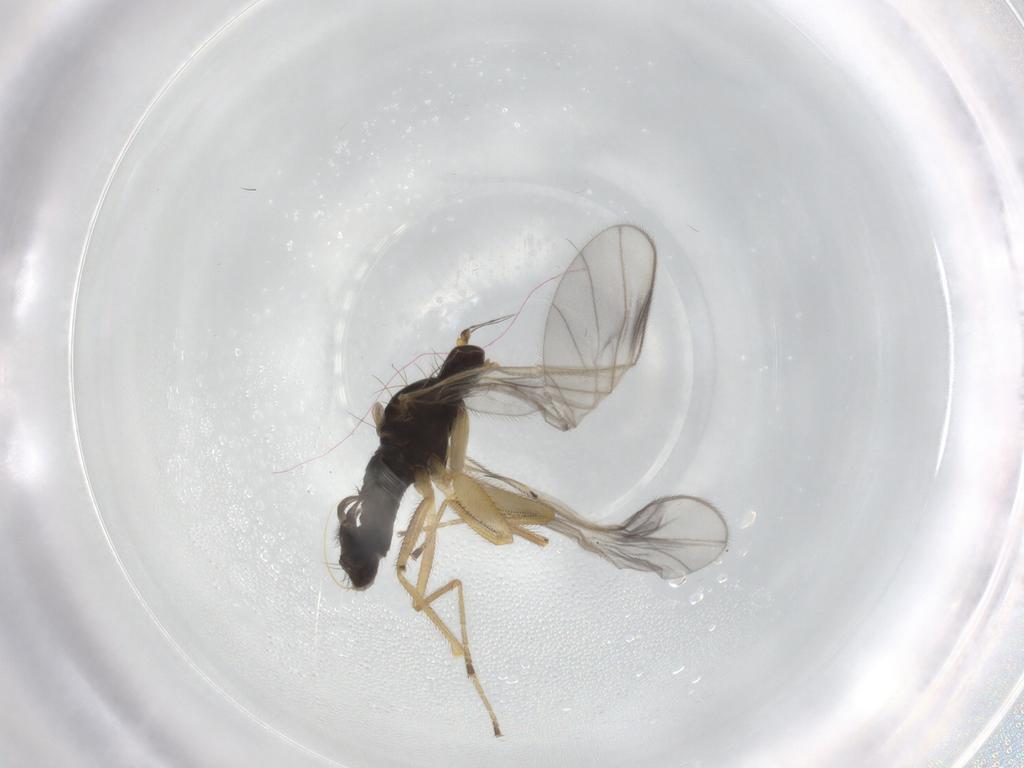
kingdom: Animalia
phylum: Arthropoda
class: Insecta
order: Diptera
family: Cecidomyiidae
